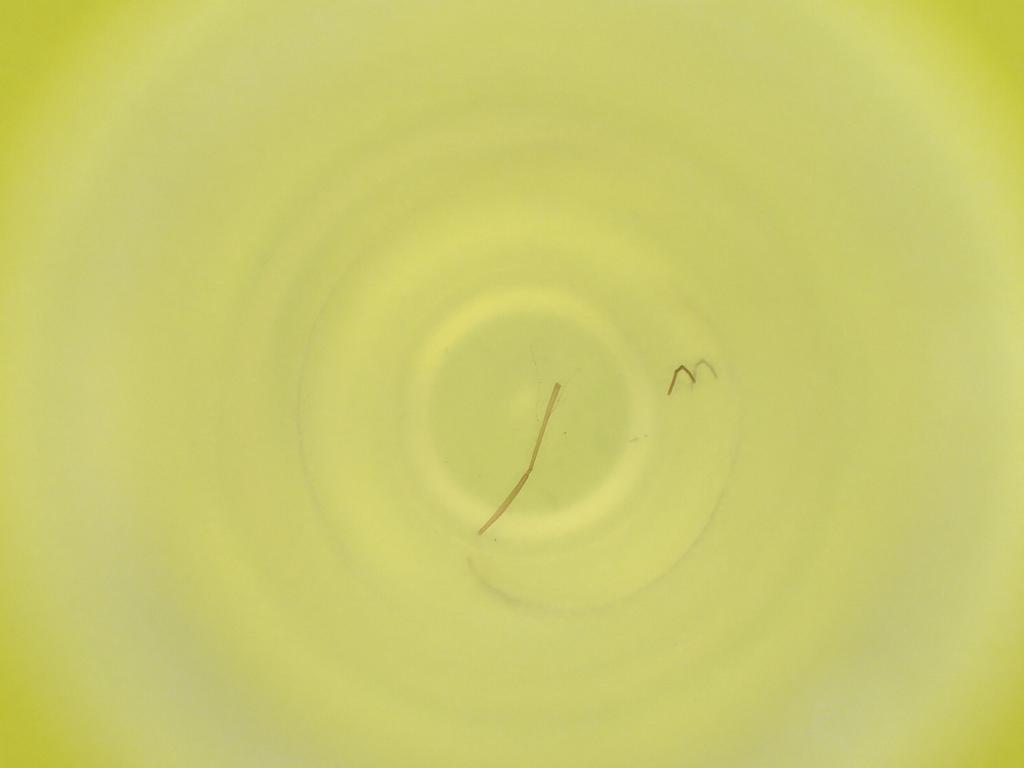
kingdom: Animalia
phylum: Arthropoda
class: Insecta
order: Diptera
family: Cecidomyiidae
